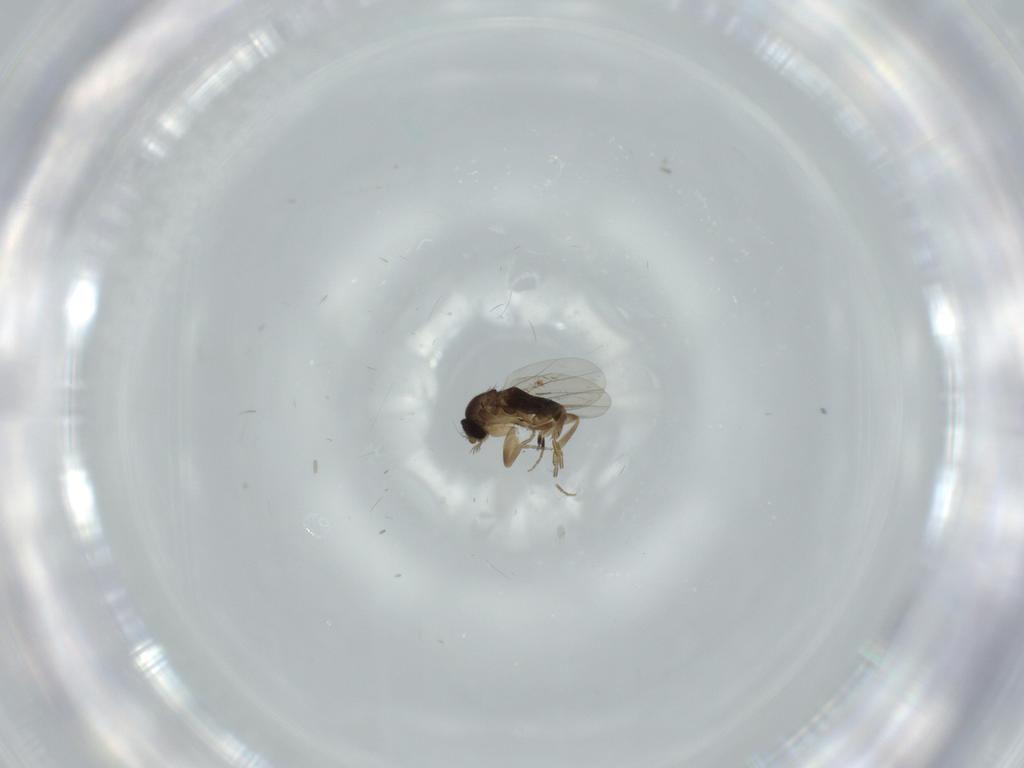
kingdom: Animalia
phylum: Arthropoda
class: Insecta
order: Diptera
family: Phoridae
